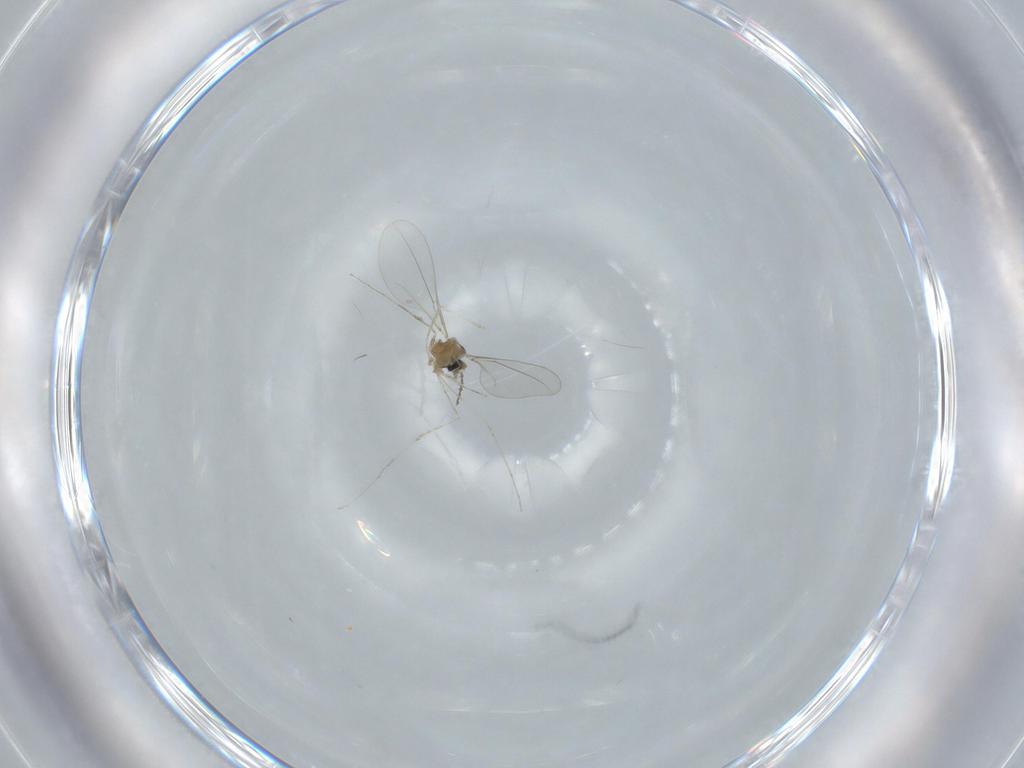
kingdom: Animalia
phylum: Arthropoda
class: Insecta
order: Diptera
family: Cecidomyiidae
